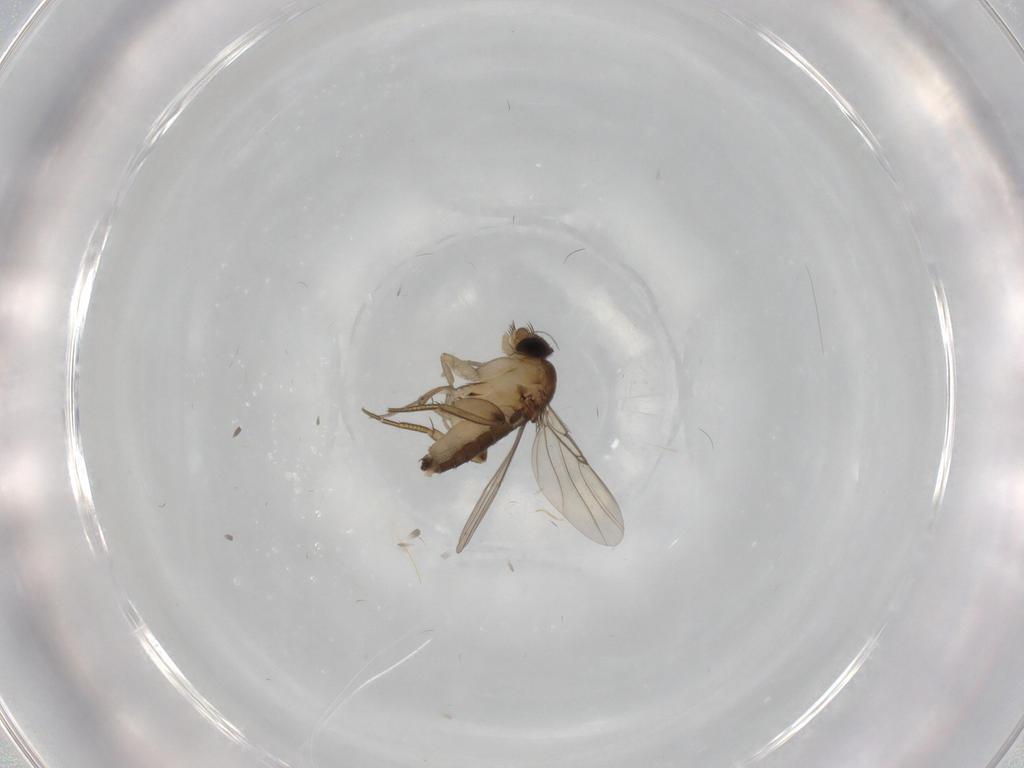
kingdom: Animalia
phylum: Arthropoda
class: Insecta
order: Diptera
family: Phoridae
